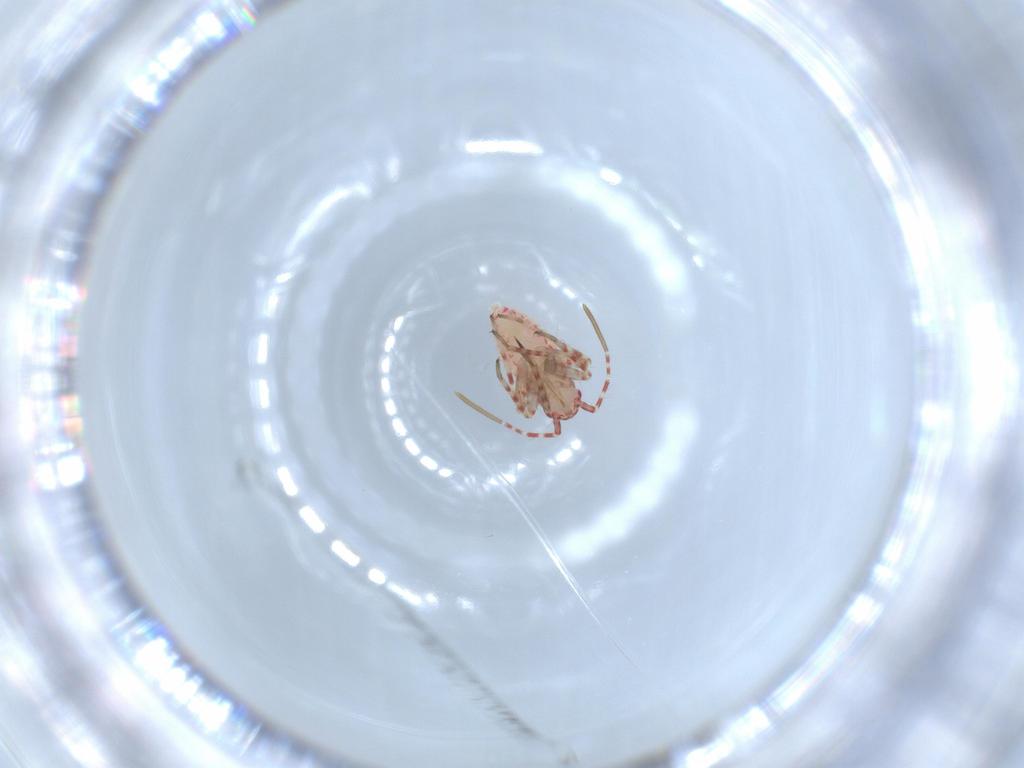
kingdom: Animalia
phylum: Arthropoda
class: Insecta
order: Hemiptera
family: Miridae
